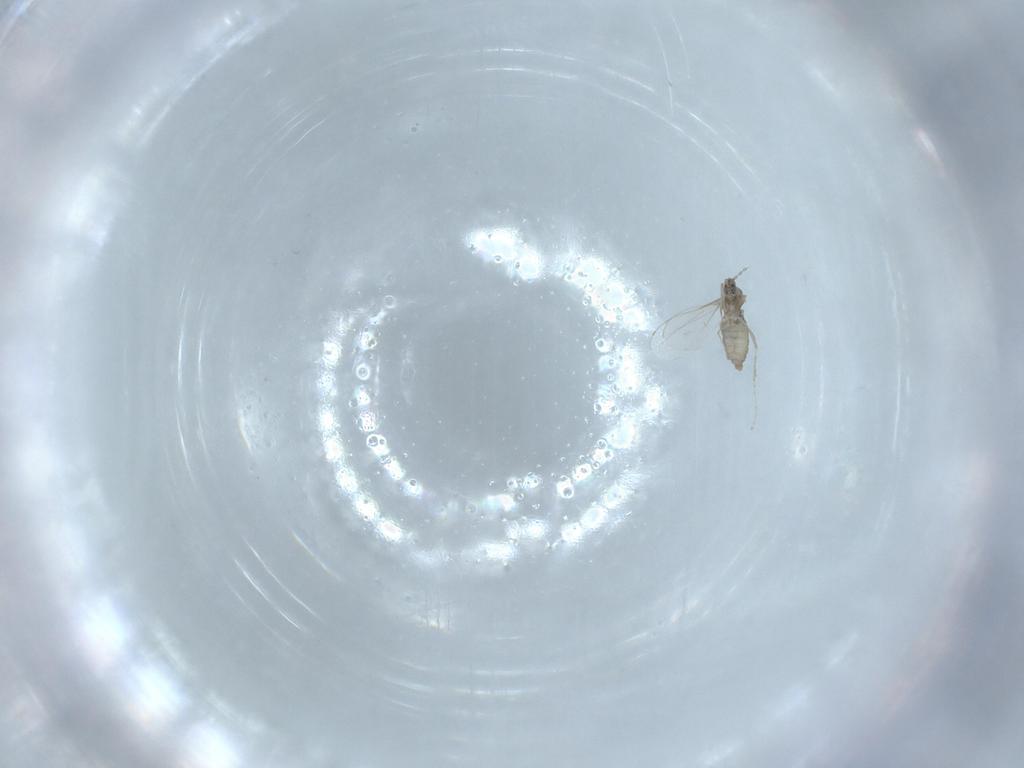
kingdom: Animalia
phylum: Arthropoda
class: Insecta
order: Diptera
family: Cecidomyiidae
